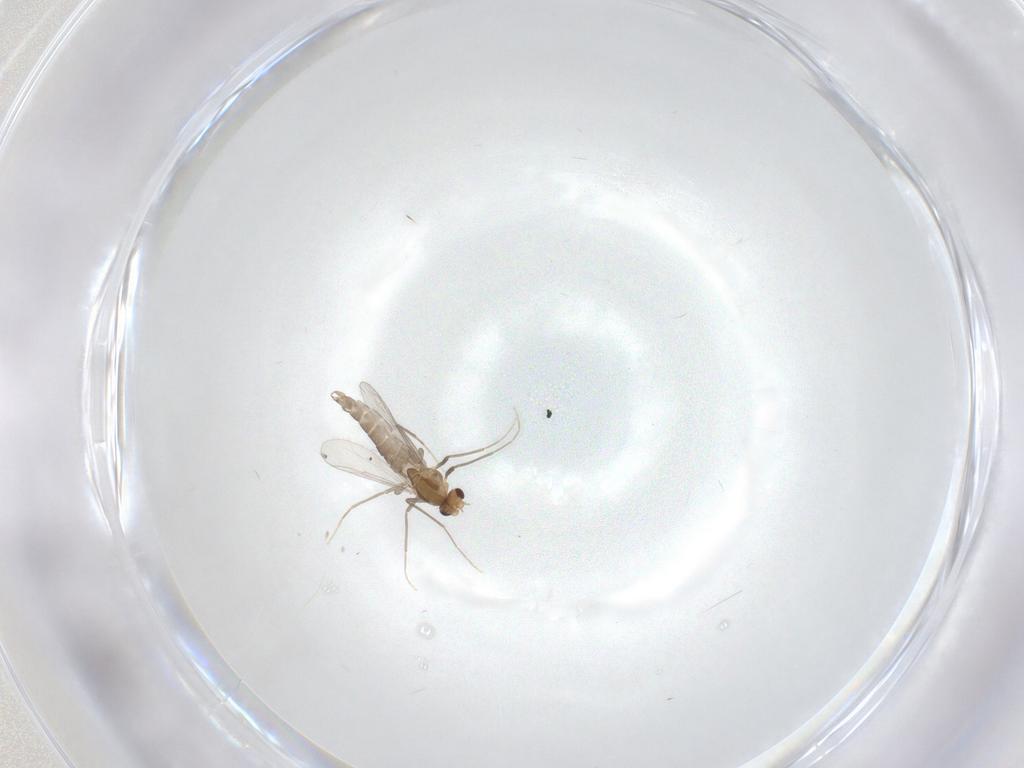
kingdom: Animalia
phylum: Arthropoda
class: Insecta
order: Diptera
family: Chironomidae
